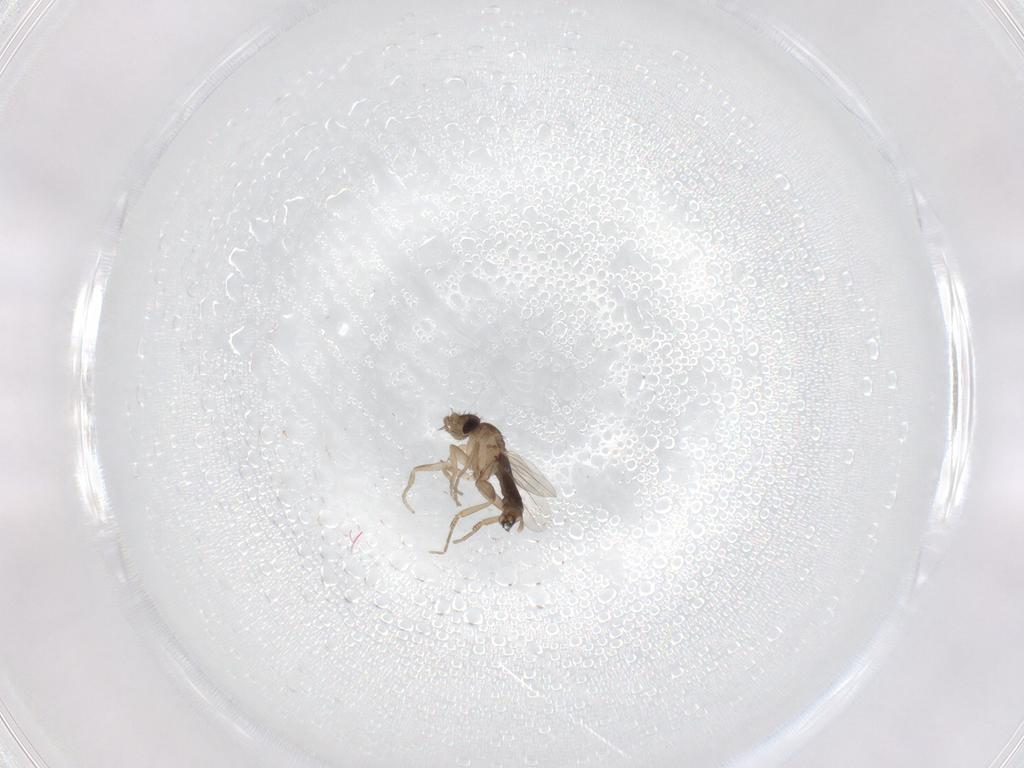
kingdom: Animalia
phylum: Arthropoda
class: Insecta
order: Diptera
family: Phoridae
